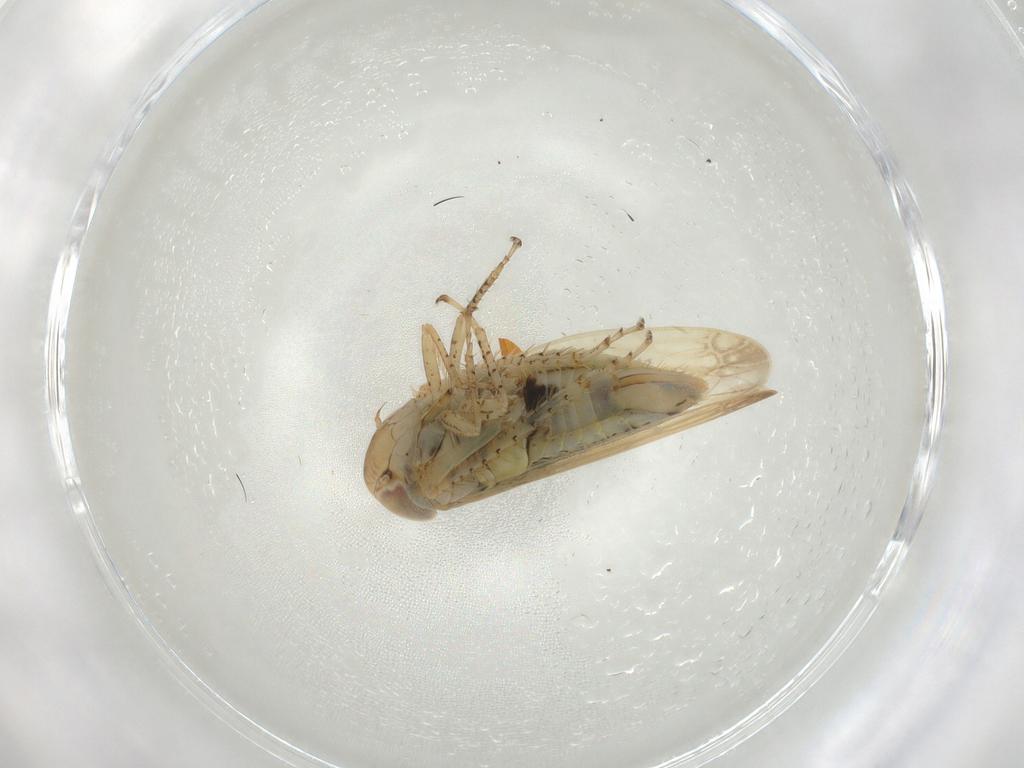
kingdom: Animalia
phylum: Arthropoda
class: Insecta
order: Hemiptera
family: Cicadellidae
